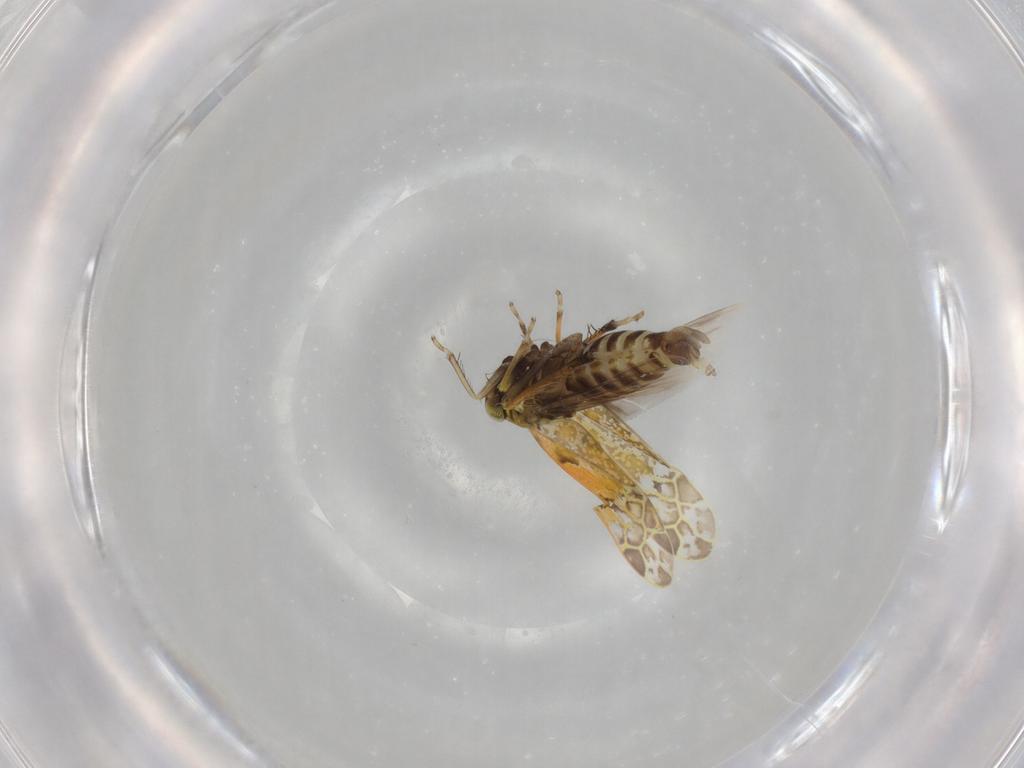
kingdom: Animalia
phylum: Arthropoda
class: Insecta
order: Hemiptera
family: Cicadellidae
